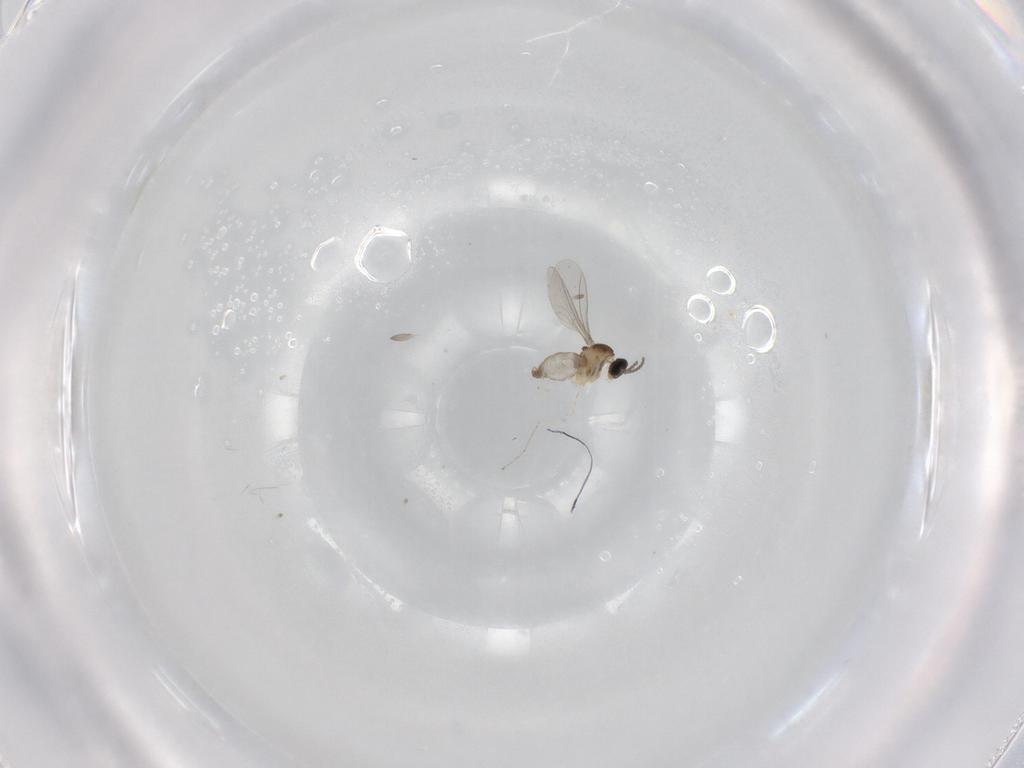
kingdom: Animalia
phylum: Arthropoda
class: Insecta
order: Diptera
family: Cecidomyiidae
